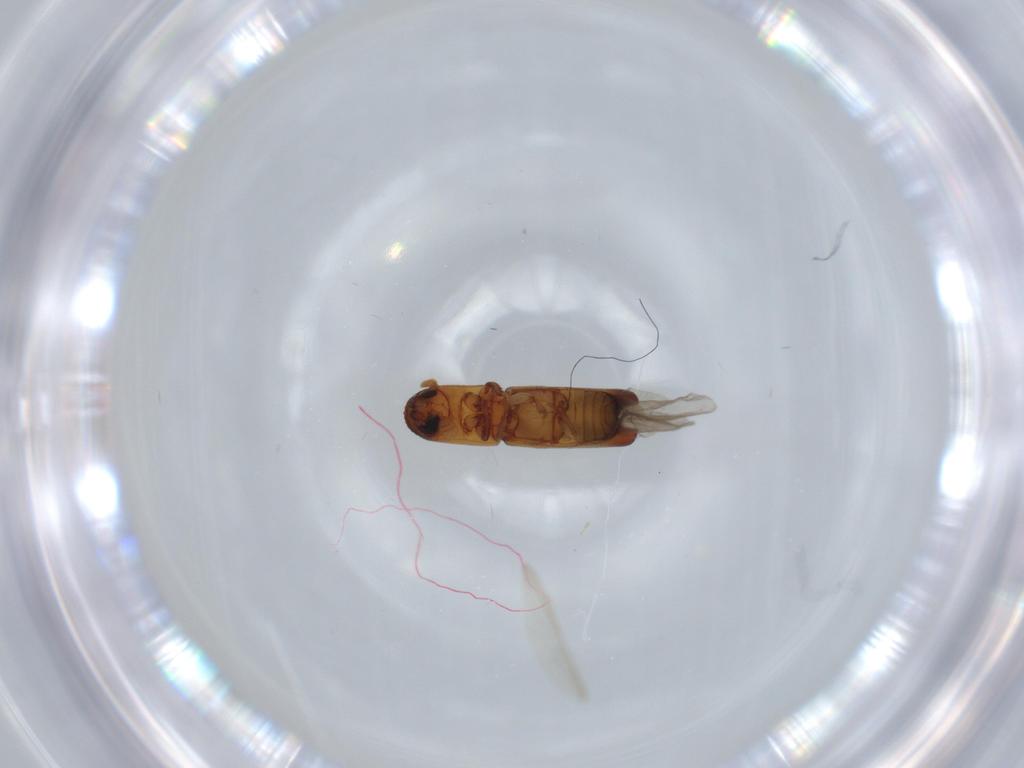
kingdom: Animalia
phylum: Arthropoda
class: Insecta
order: Coleoptera
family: Curculionidae
